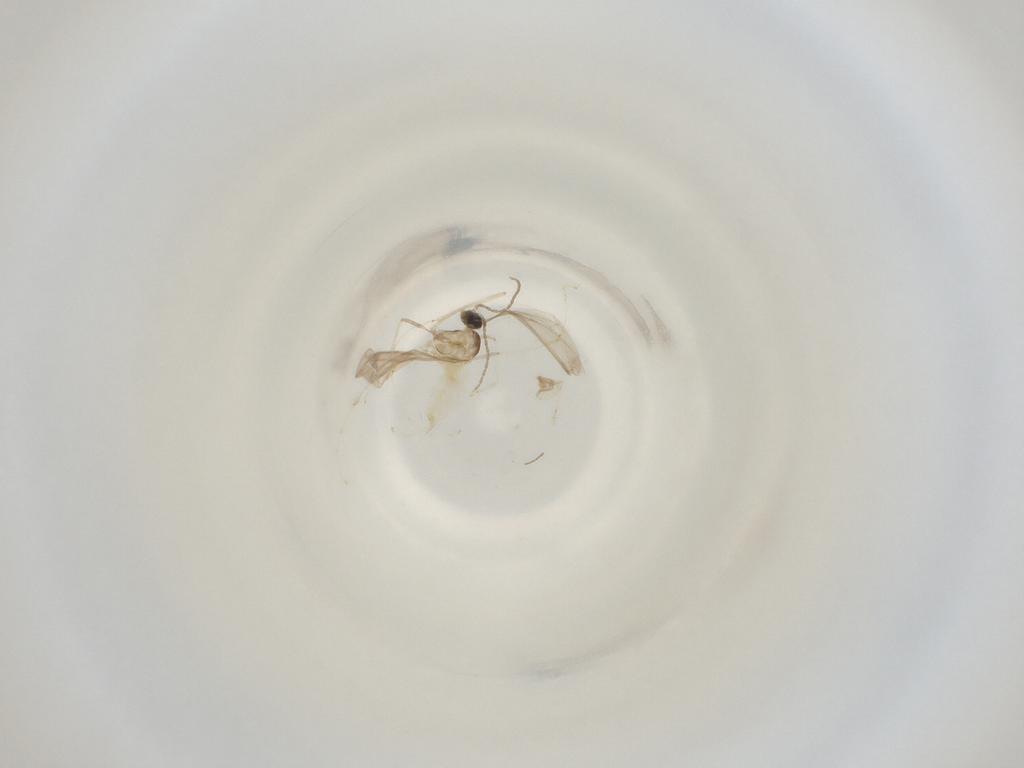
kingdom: Animalia
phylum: Arthropoda
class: Insecta
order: Diptera
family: Cecidomyiidae
